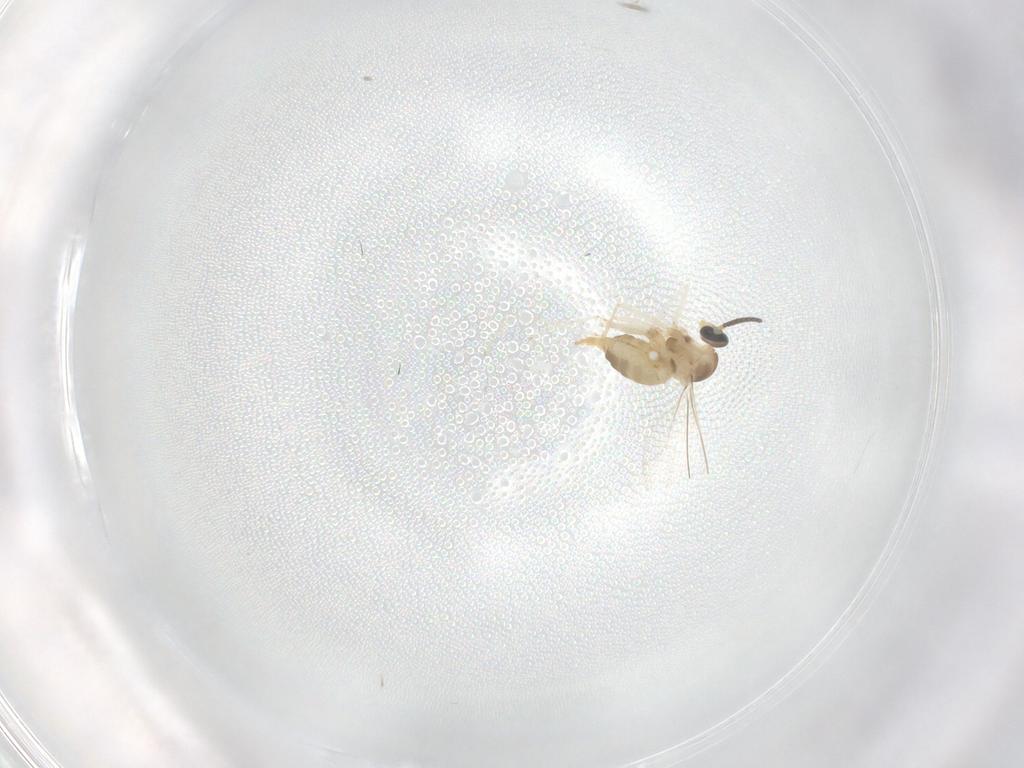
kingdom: Animalia
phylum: Arthropoda
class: Insecta
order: Diptera
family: Cecidomyiidae
